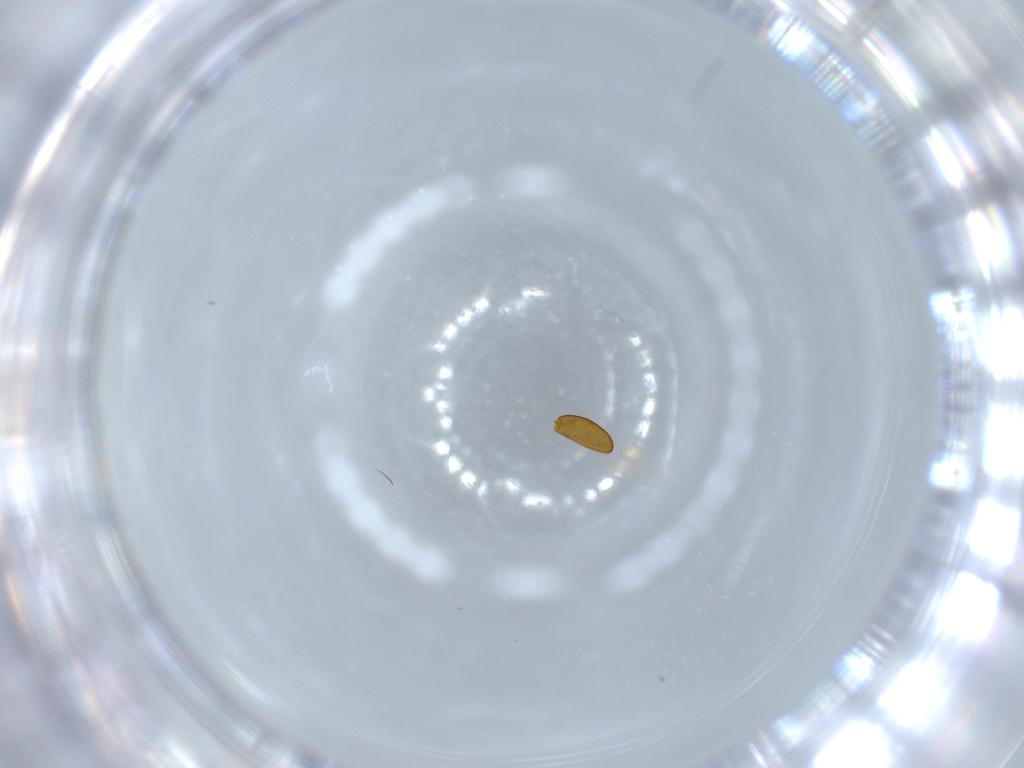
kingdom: Animalia
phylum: Arthropoda
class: Insecta
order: Coleoptera
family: Staphylinidae
